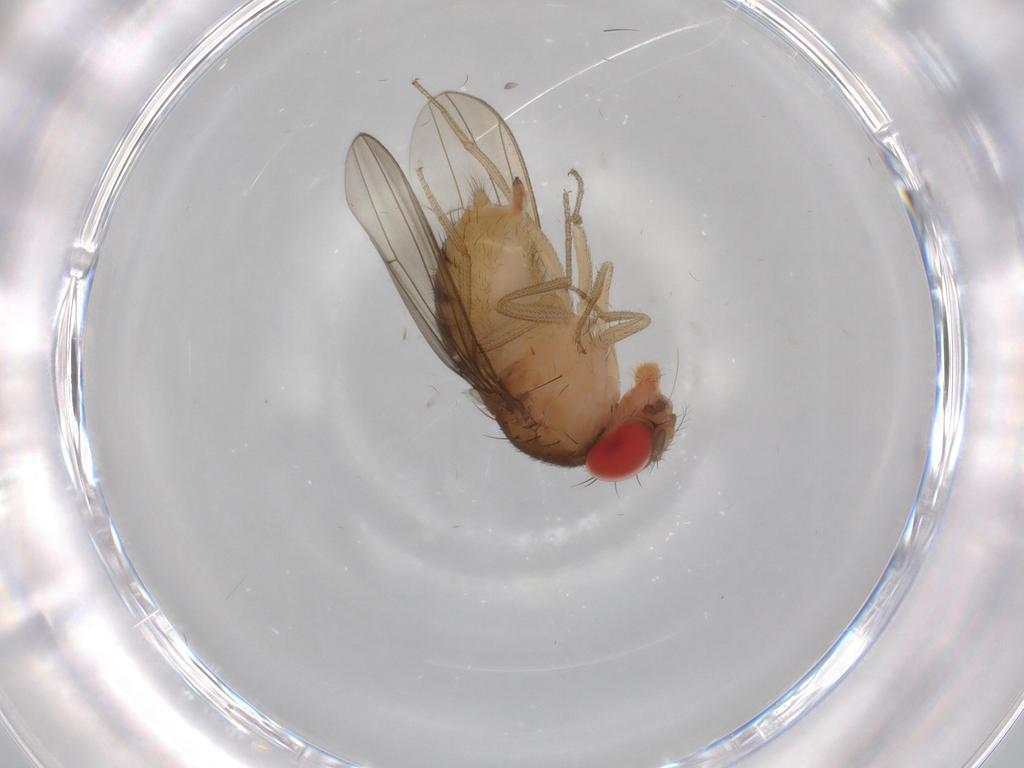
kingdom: Animalia
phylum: Arthropoda
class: Insecta
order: Diptera
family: Drosophilidae
